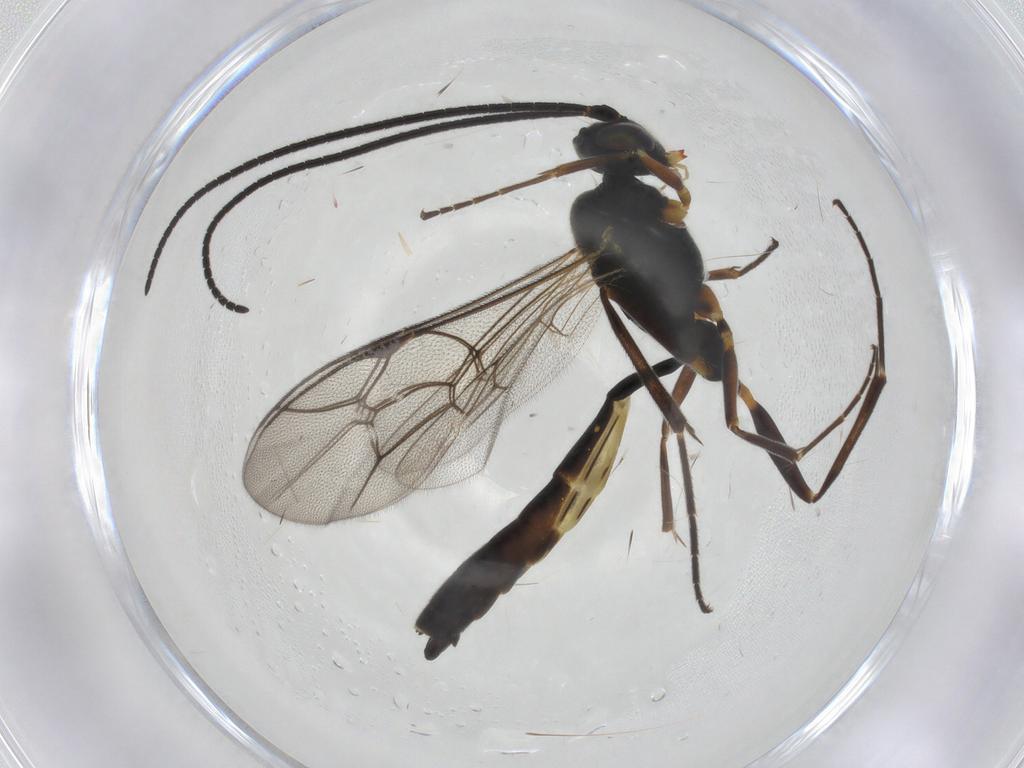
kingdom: Animalia
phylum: Arthropoda
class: Insecta
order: Hymenoptera
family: Ichneumonidae
